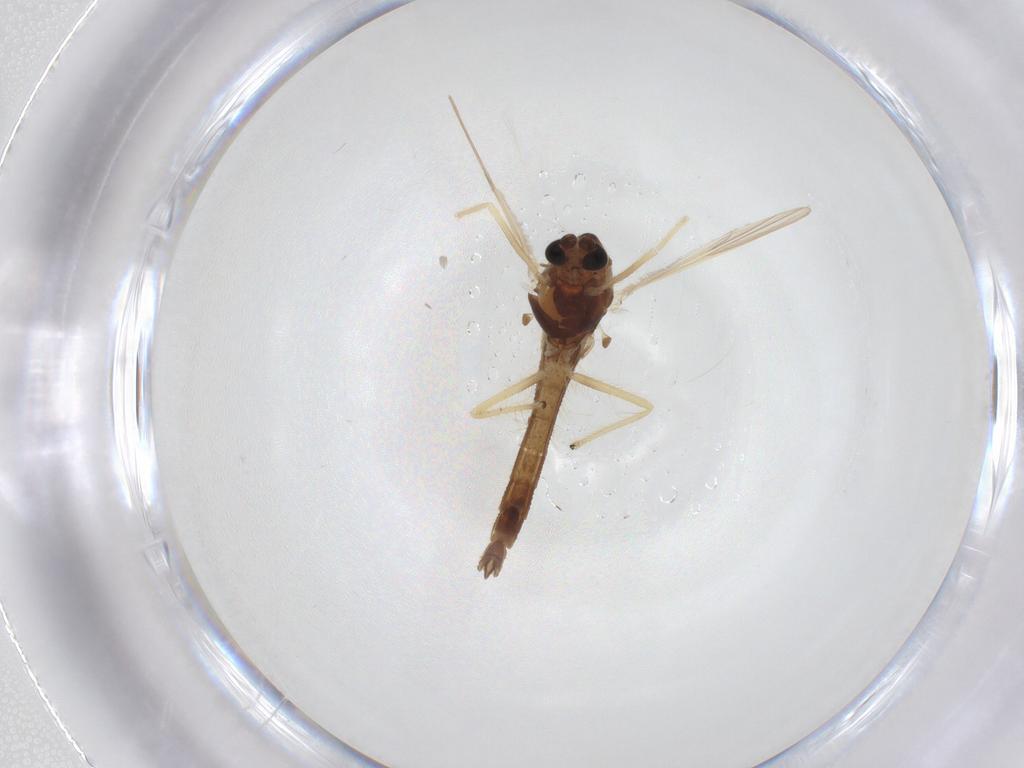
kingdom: Animalia
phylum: Arthropoda
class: Insecta
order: Diptera
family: Chironomidae
